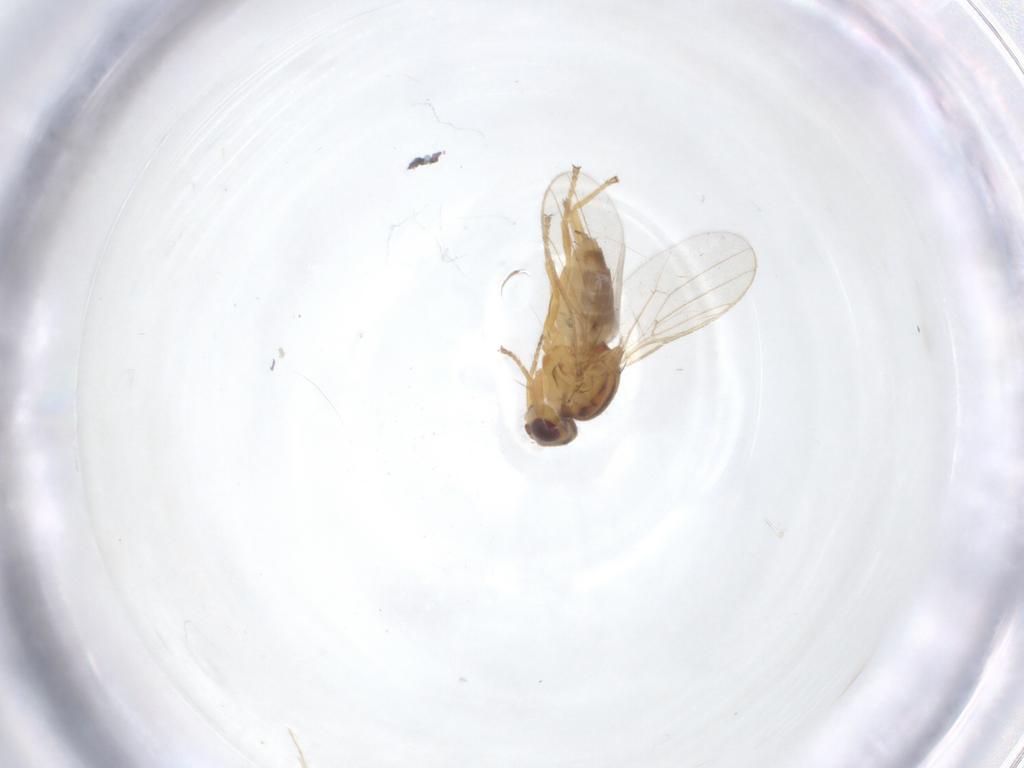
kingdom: Animalia
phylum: Arthropoda
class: Insecta
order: Diptera
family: Chloropidae
